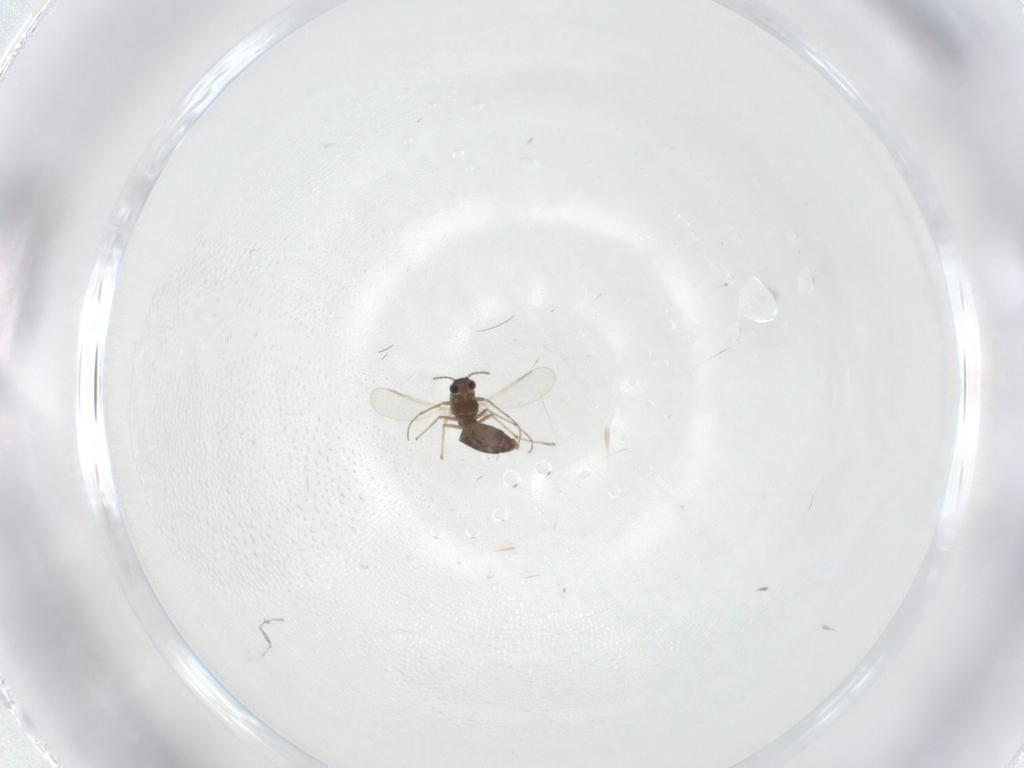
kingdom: Animalia
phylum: Arthropoda
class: Insecta
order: Diptera
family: Chironomidae
